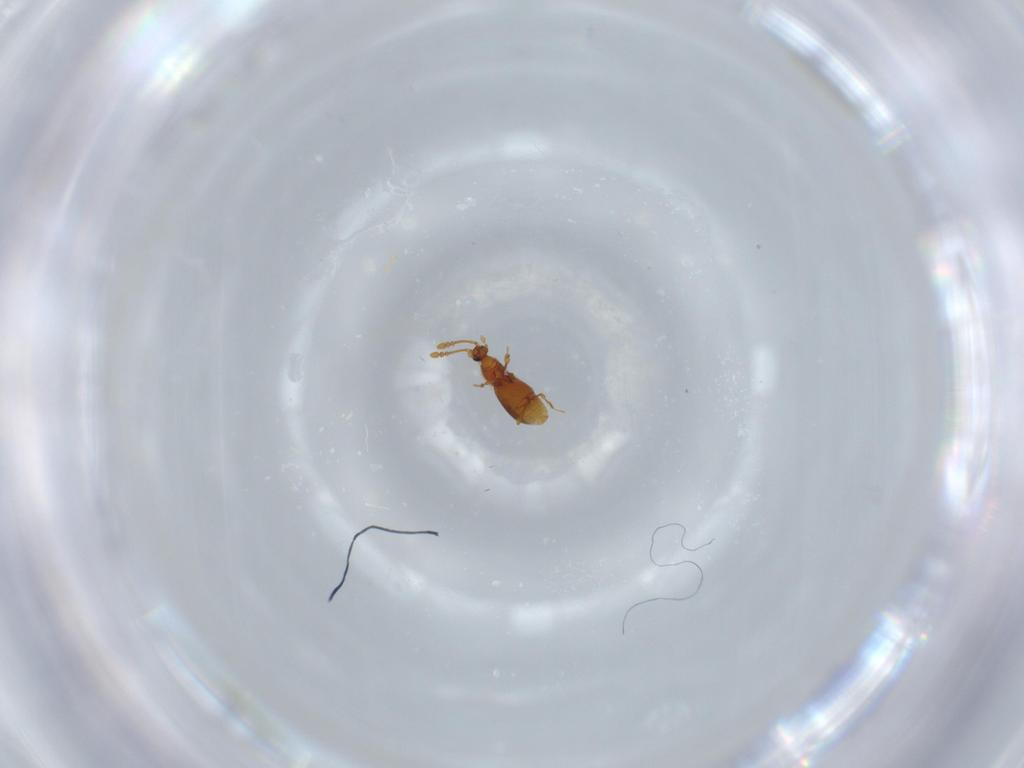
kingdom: Animalia
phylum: Arthropoda
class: Insecta
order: Coleoptera
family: Staphylinidae
